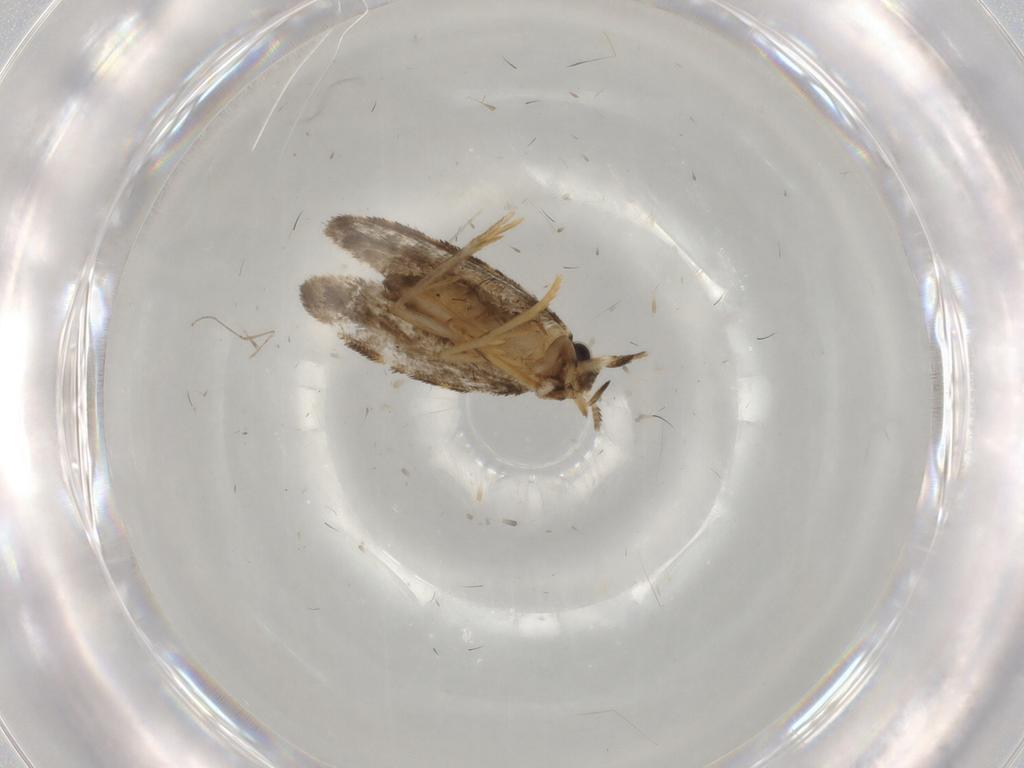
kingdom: Animalia
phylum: Arthropoda
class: Insecta
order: Lepidoptera
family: Psychidae
